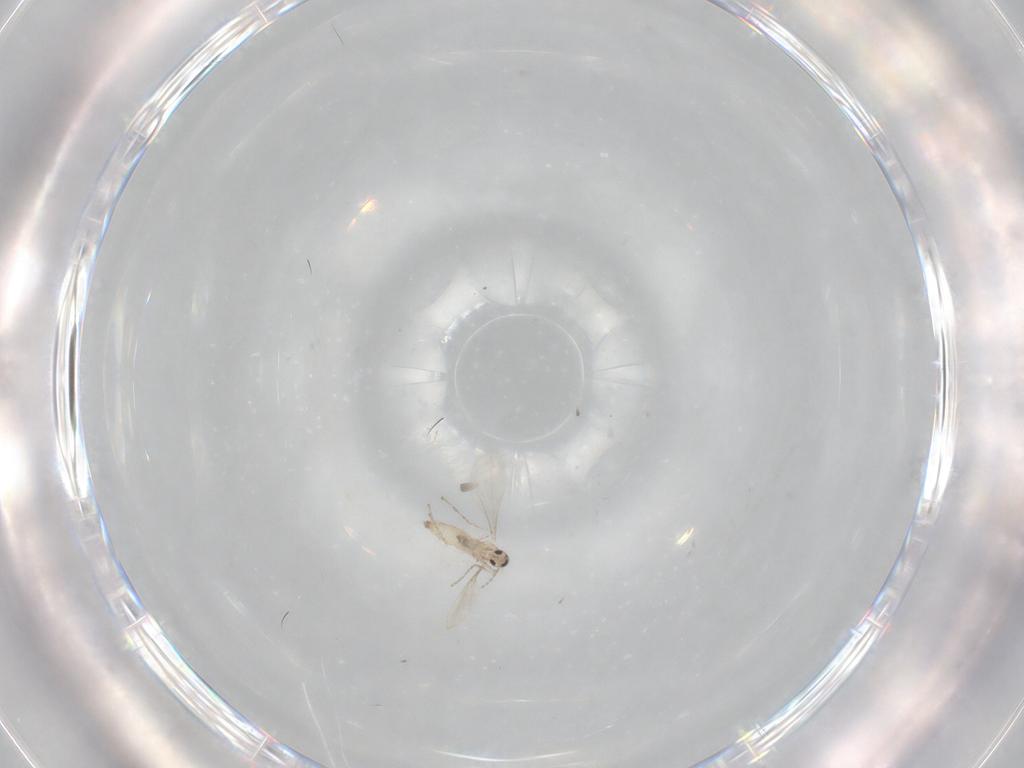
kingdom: Animalia
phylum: Arthropoda
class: Insecta
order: Diptera
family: Cecidomyiidae
